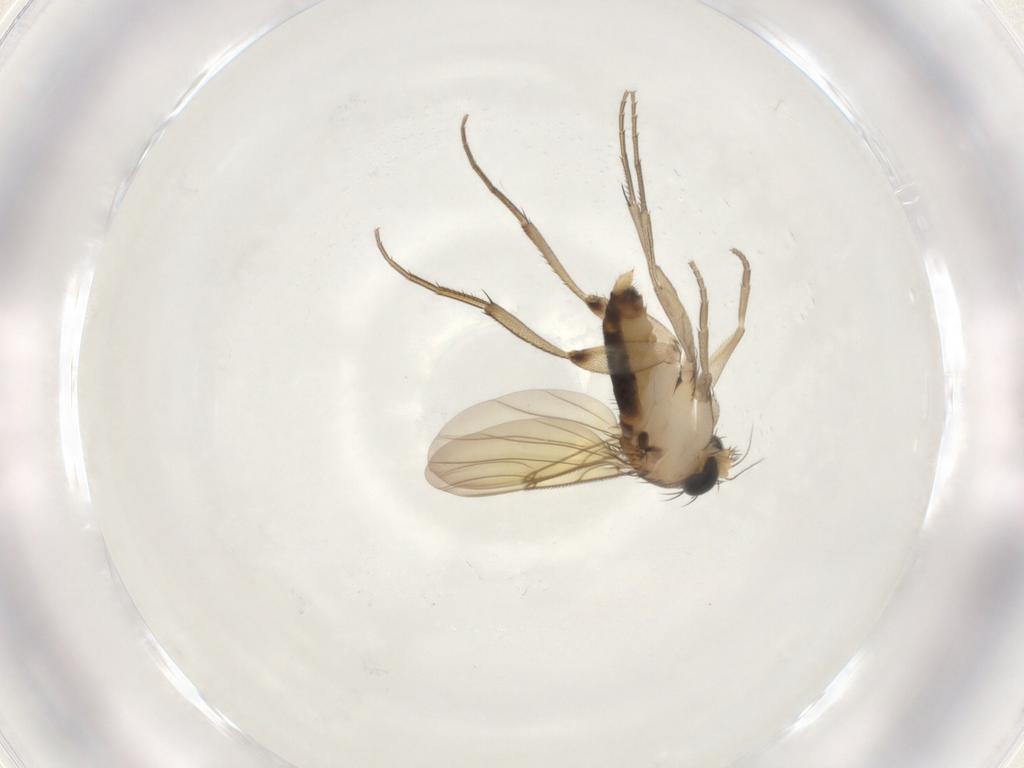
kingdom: Animalia
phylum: Arthropoda
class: Insecta
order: Diptera
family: Phoridae
